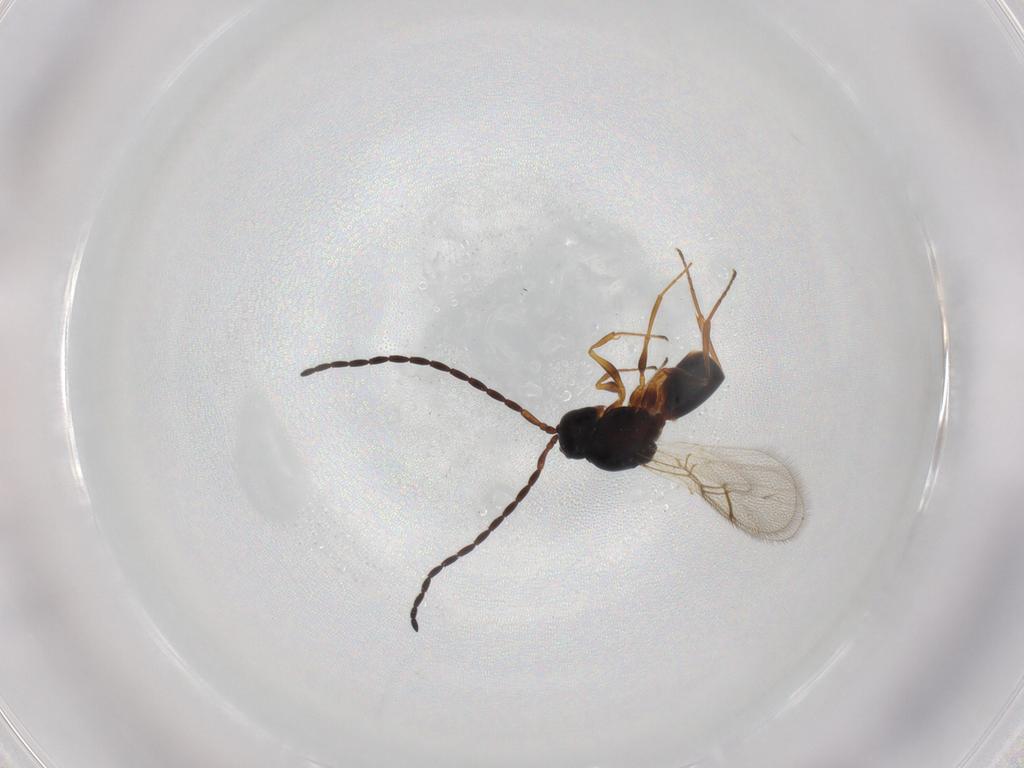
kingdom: Animalia
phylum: Arthropoda
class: Insecta
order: Hymenoptera
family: Figitidae
